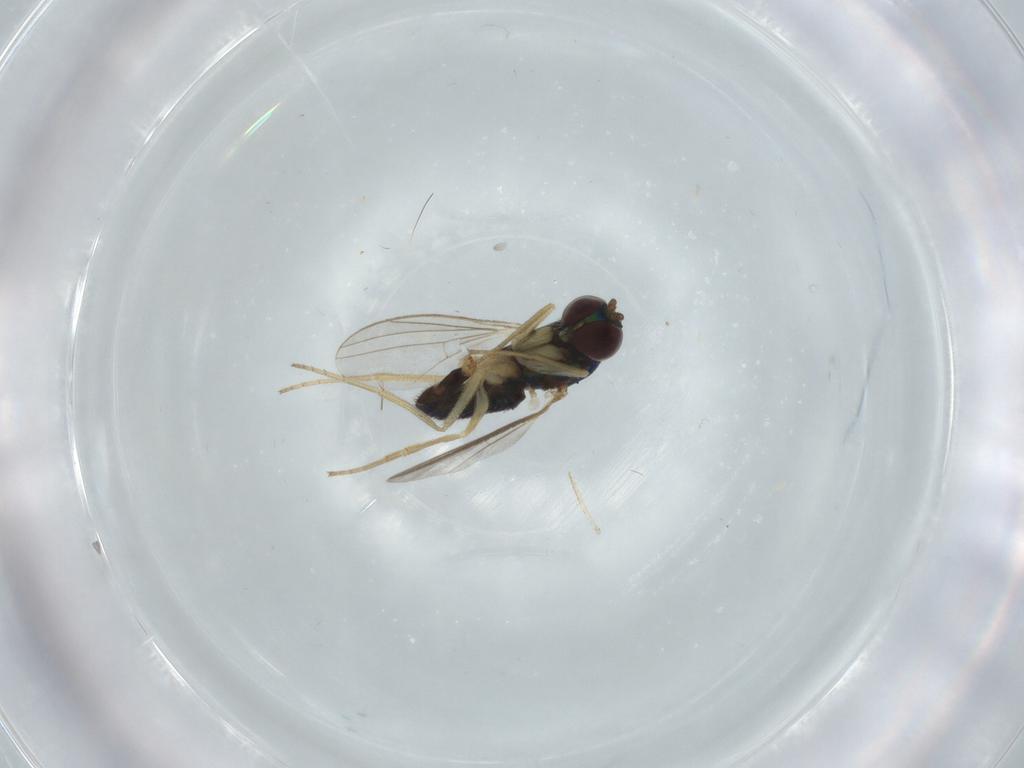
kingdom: Animalia
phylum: Arthropoda
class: Insecta
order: Diptera
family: Dolichopodidae
